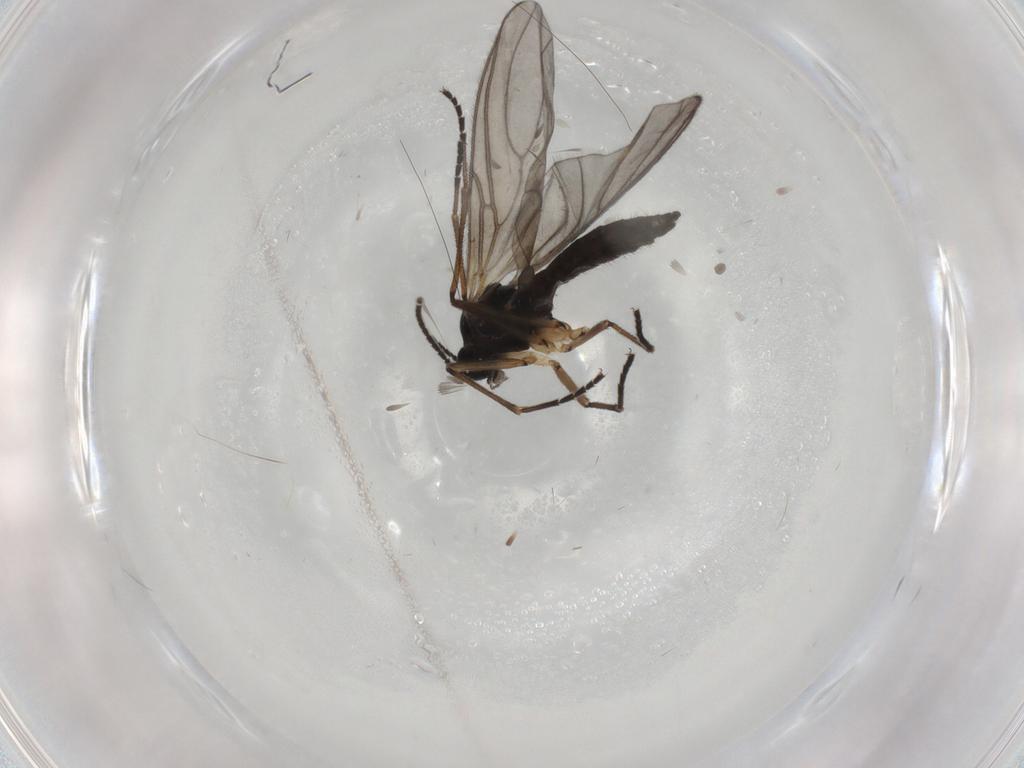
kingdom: Animalia
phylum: Arthropoda
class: Insecta
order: Diptera
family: Sciaridae
